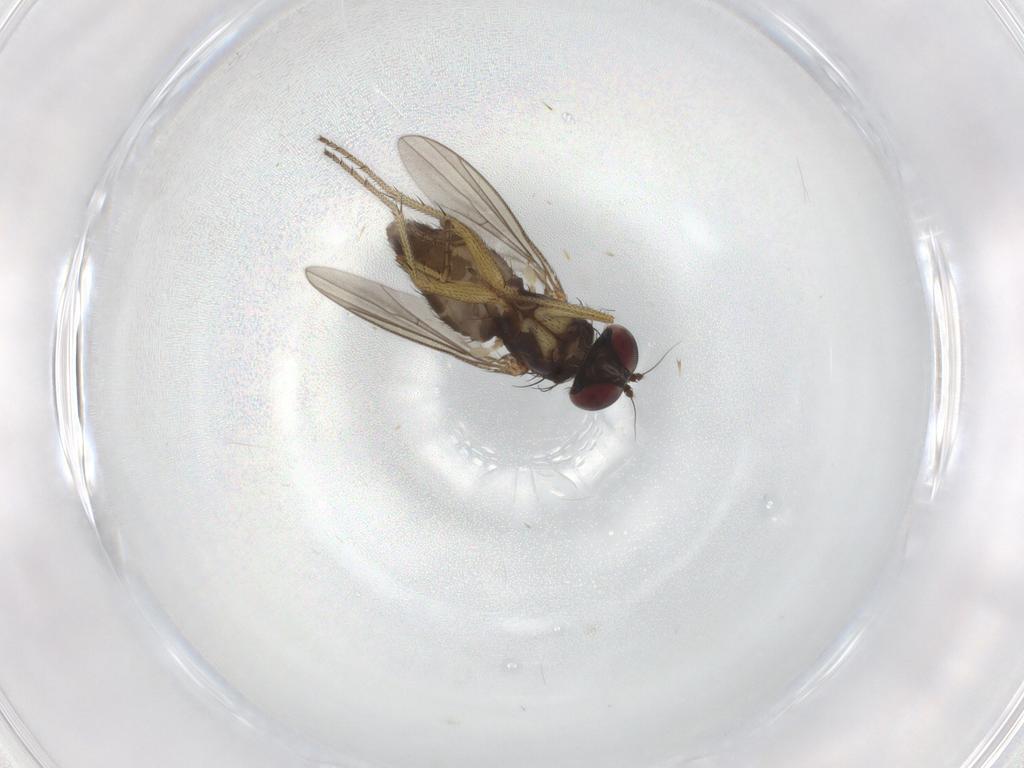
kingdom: Animalia
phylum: Arthropoda
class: Insecta
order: Diptera
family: Dolichopodidae
